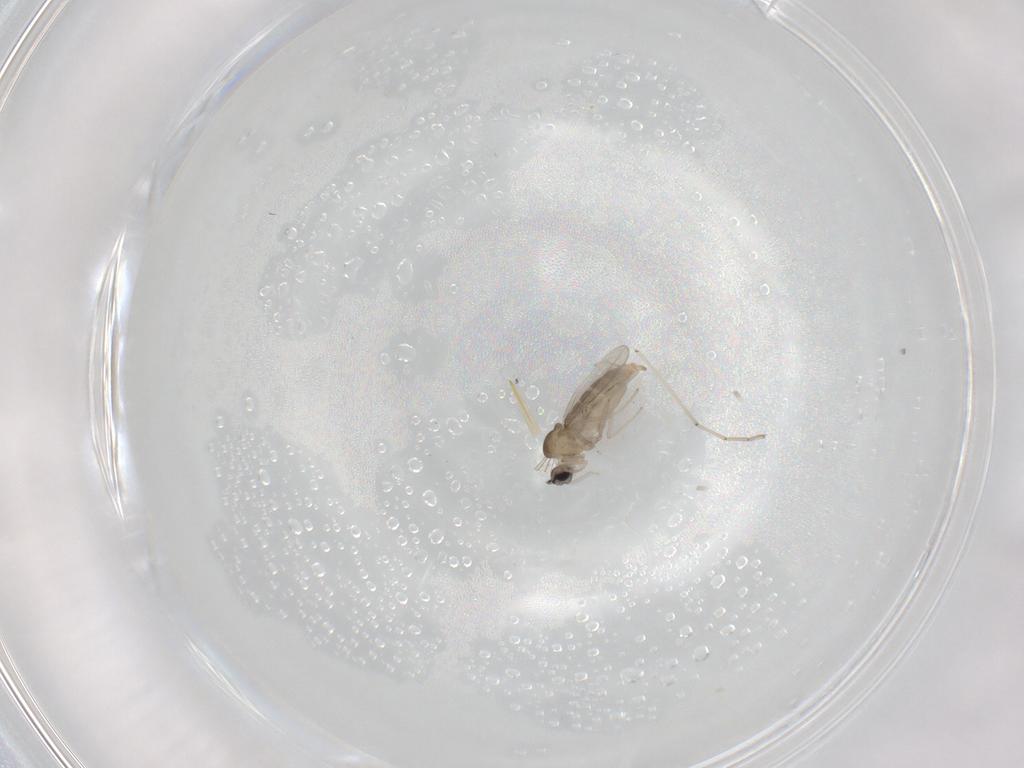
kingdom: Animalia
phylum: Arthropoda
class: Insecta
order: Diptera
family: Cecidomyiidae
